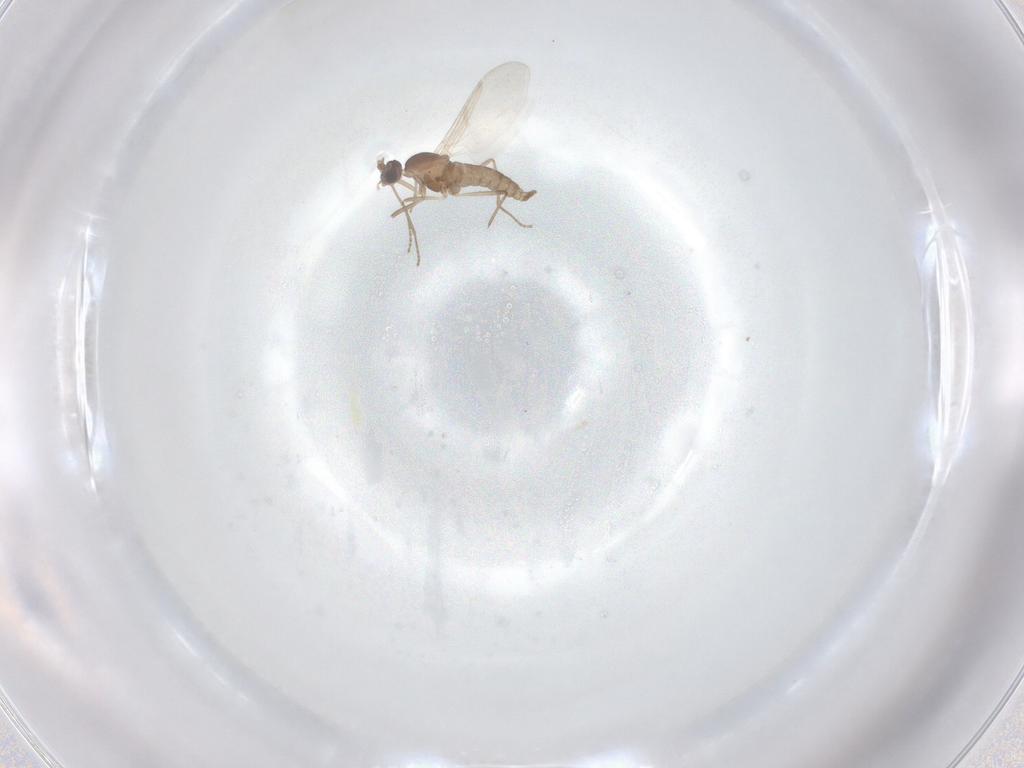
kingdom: Animalia
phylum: Arthropoda
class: Insecta
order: Diptera
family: Cecidomyiidae
